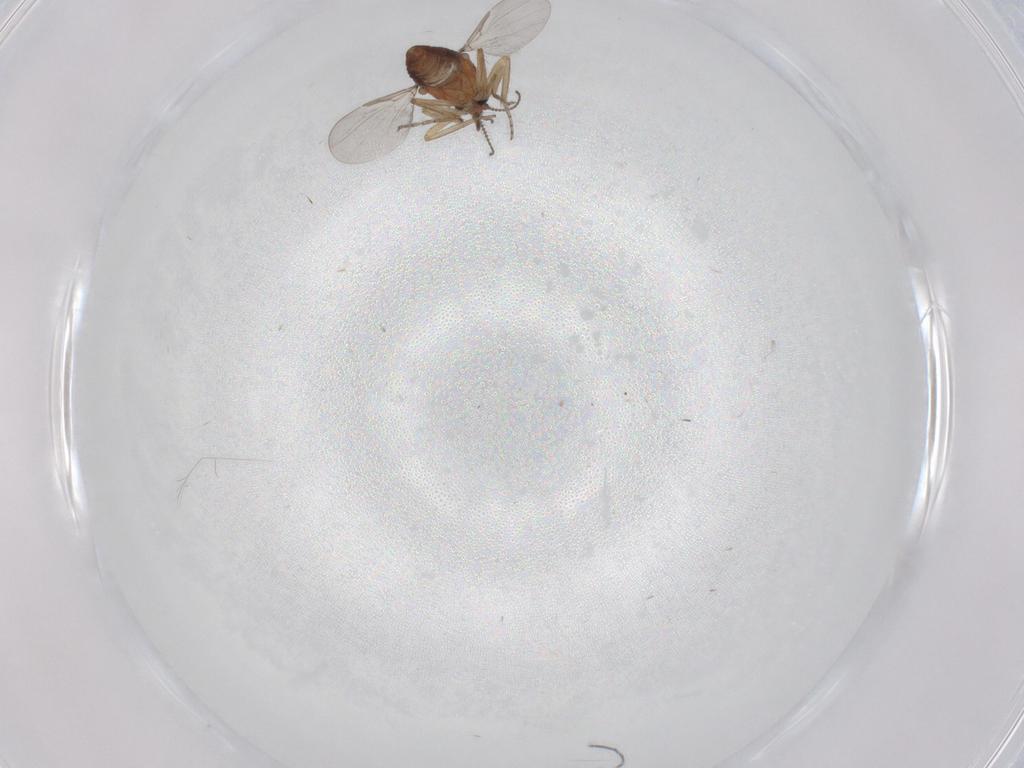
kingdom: Animalia
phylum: Arthropoda
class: Insecta
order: Diptera
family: Ceratopogonidae
